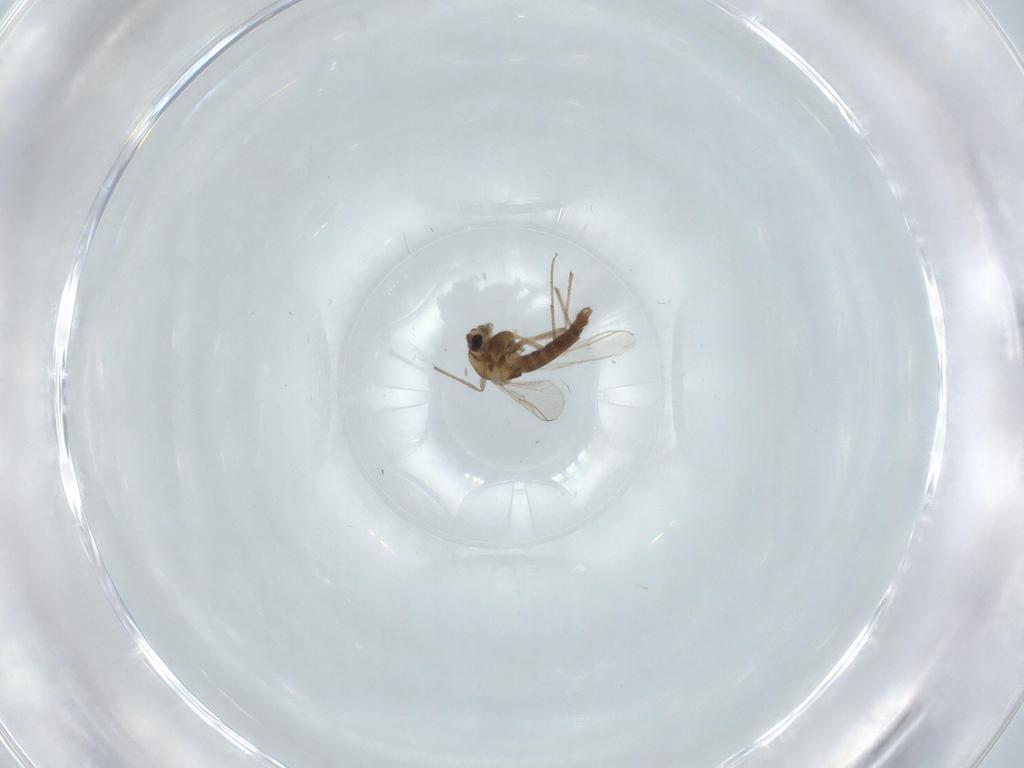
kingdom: Animalia
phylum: Arthropoda
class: Insecta
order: Diptera
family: Chironomidae
